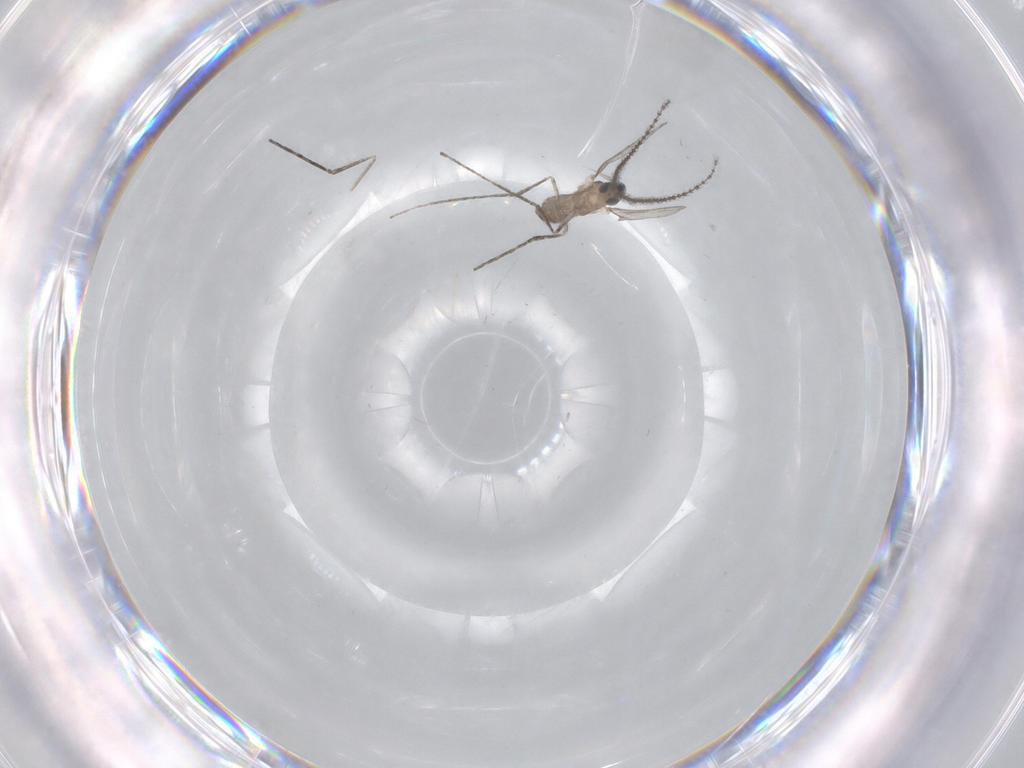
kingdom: Animalia
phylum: Arthropoda
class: Insecta
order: Diptera
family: Cecidomyiidae
